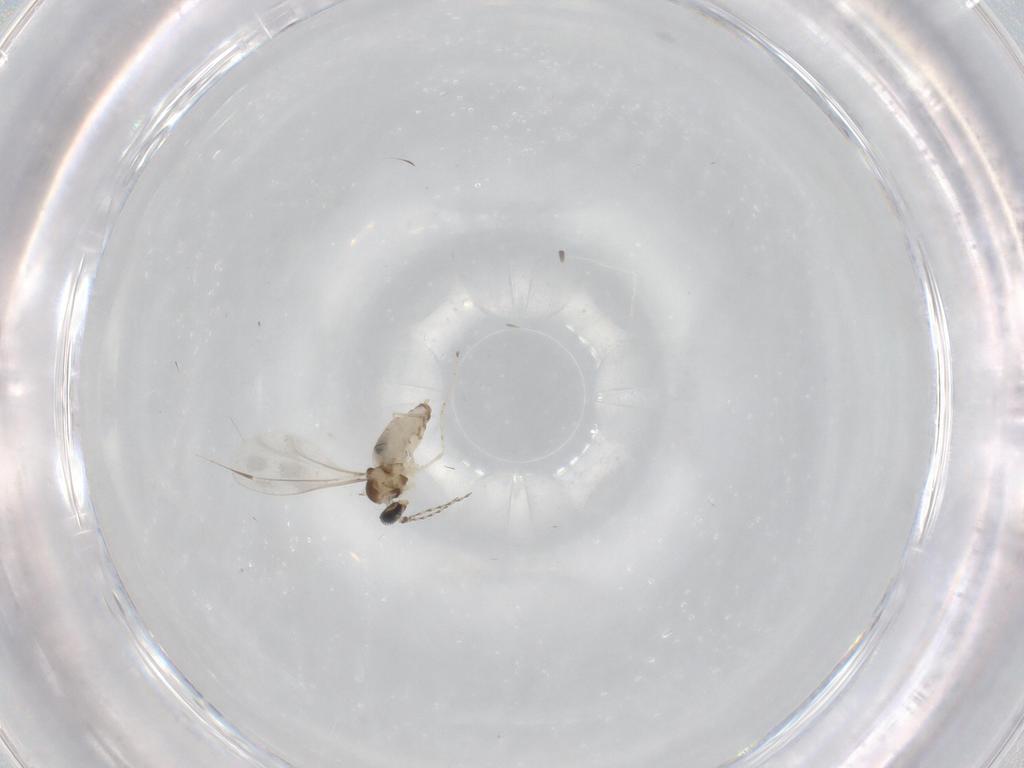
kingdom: Animalia
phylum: Arthropoda
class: Insecta
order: Diptera
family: Cecidomyiidae
